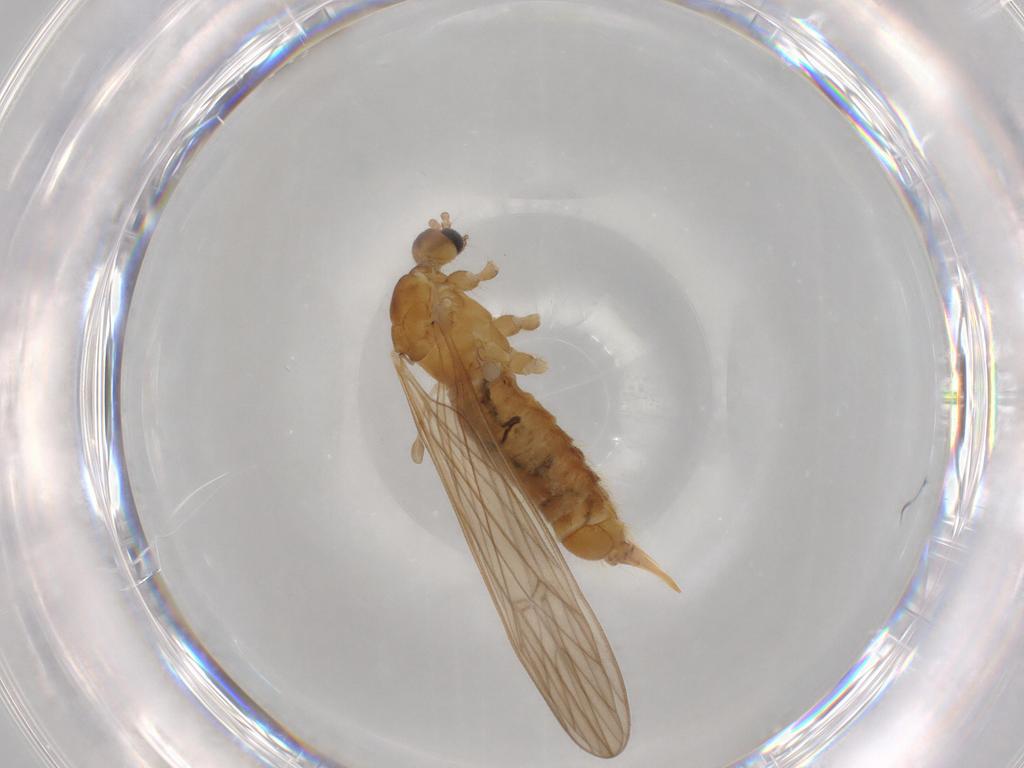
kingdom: Animalia
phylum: Arthropoda
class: Insecta
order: Diptera
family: Limoniidae
